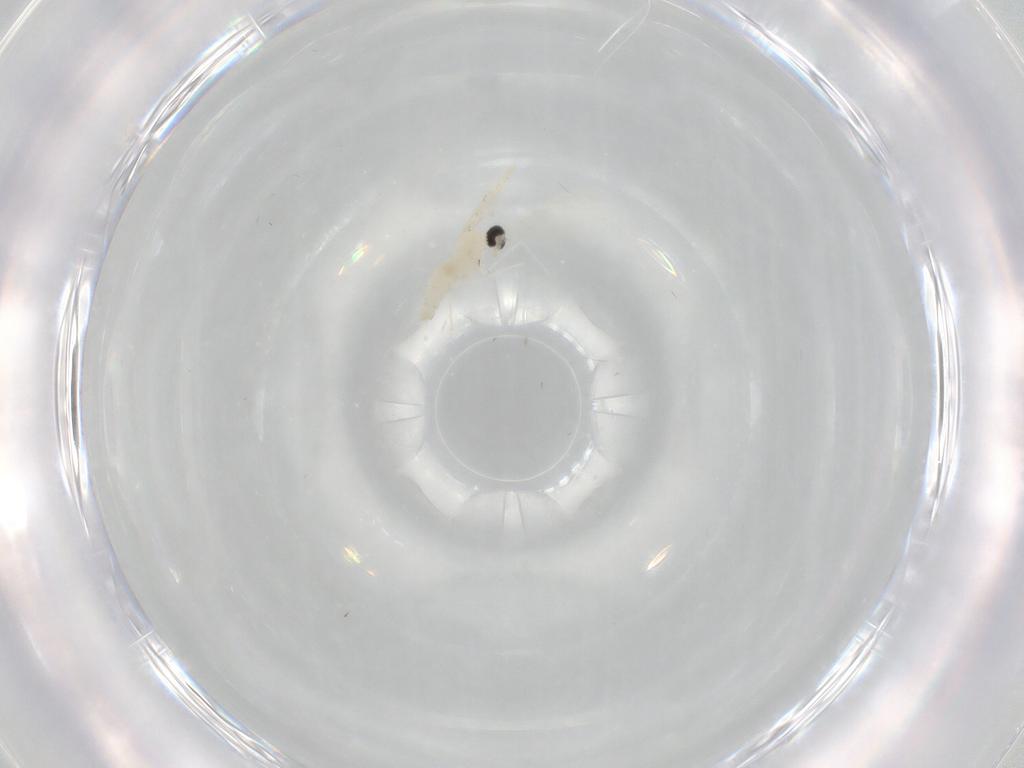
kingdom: Animalia
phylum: Arthropoda
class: Insecta
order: Diptera
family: Cecidomyiidae
